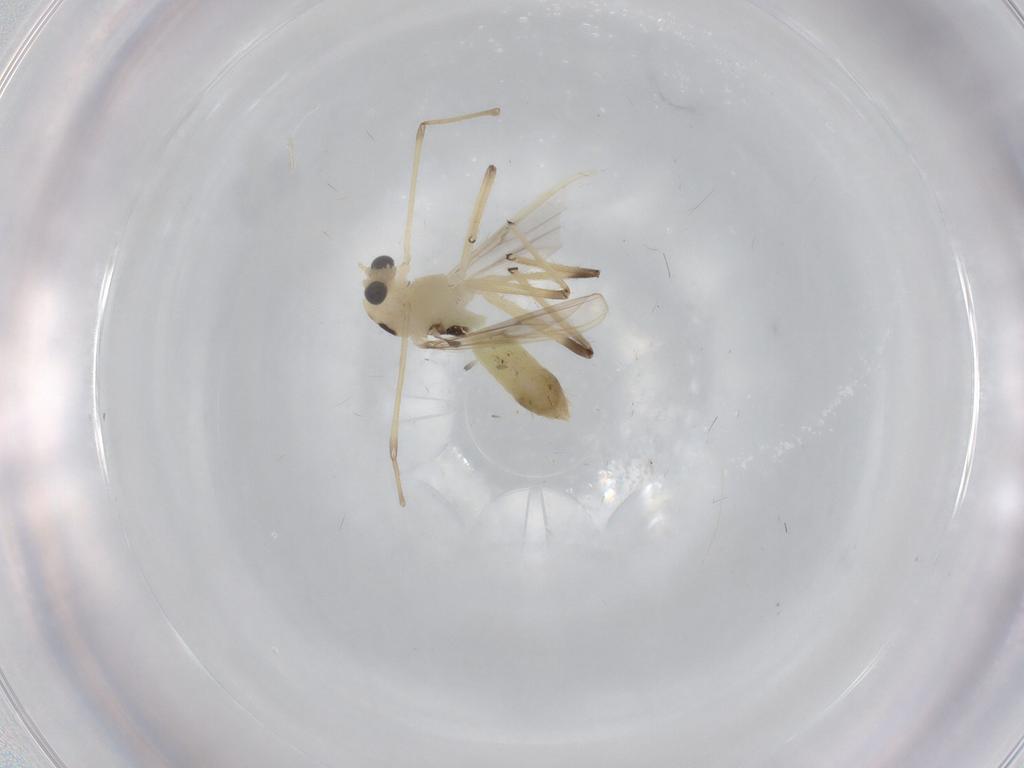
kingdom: Animalia
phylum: Arthropoda
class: Insecta
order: Diptera
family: Chironomidae
